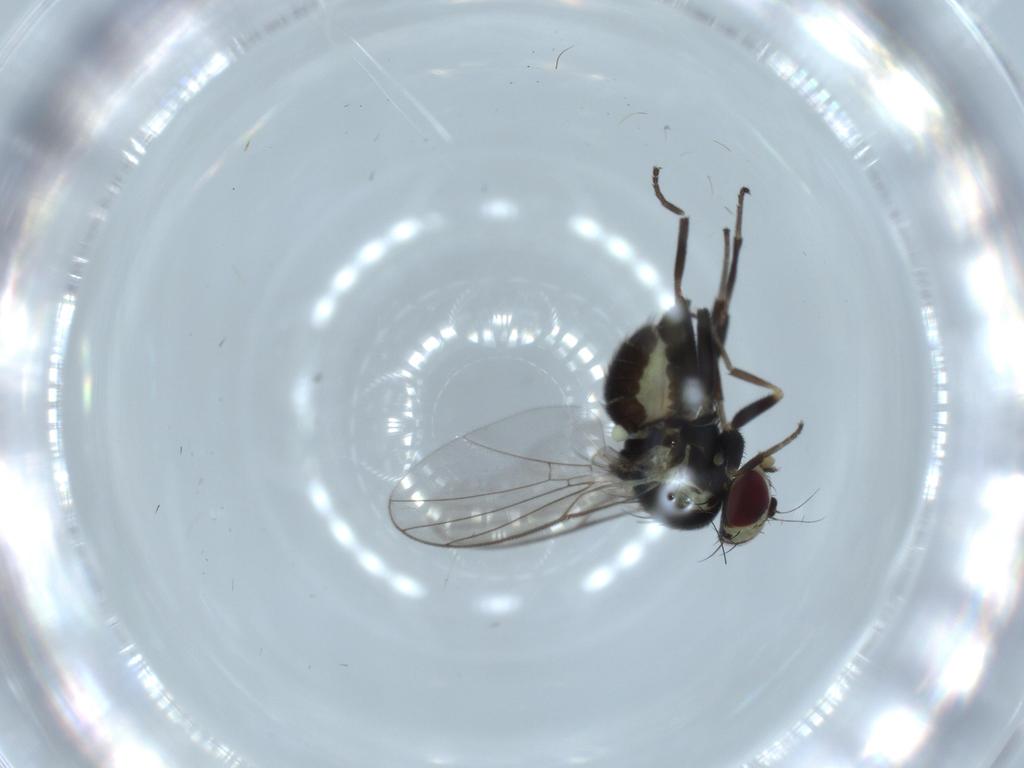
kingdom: Animalia
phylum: Arthropoda
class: Insecta
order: Diptera
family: Agromyzidae
